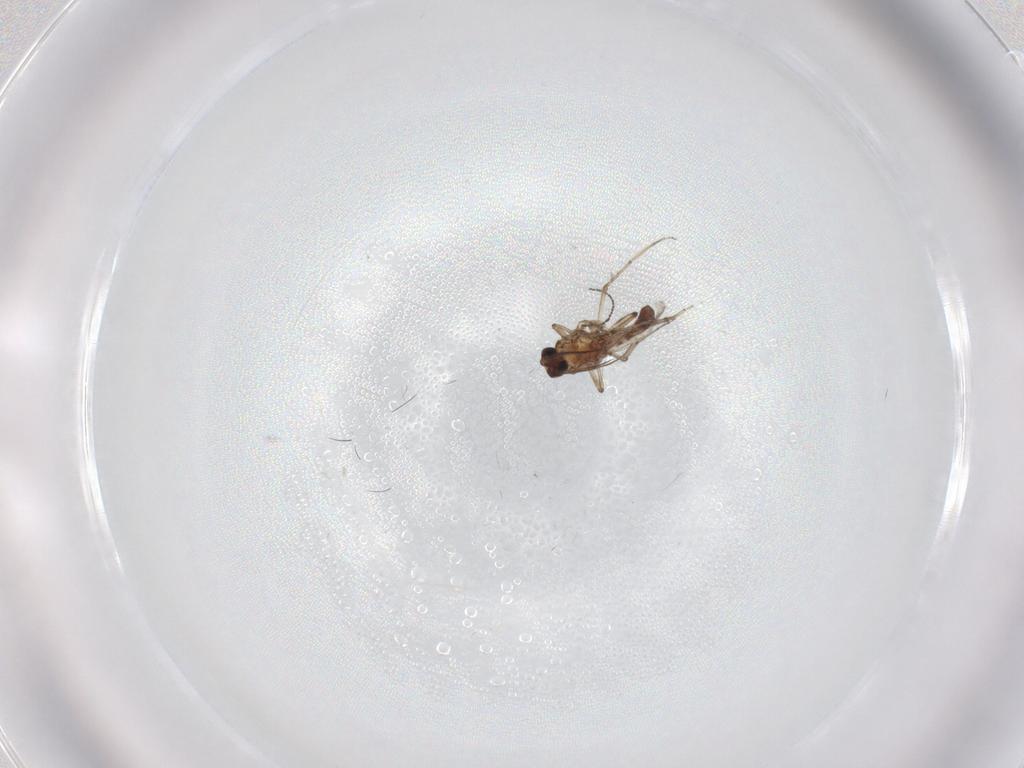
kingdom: Animalia
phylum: Arthropoda
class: Insecta
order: Diptera
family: Ceratopogonidae
